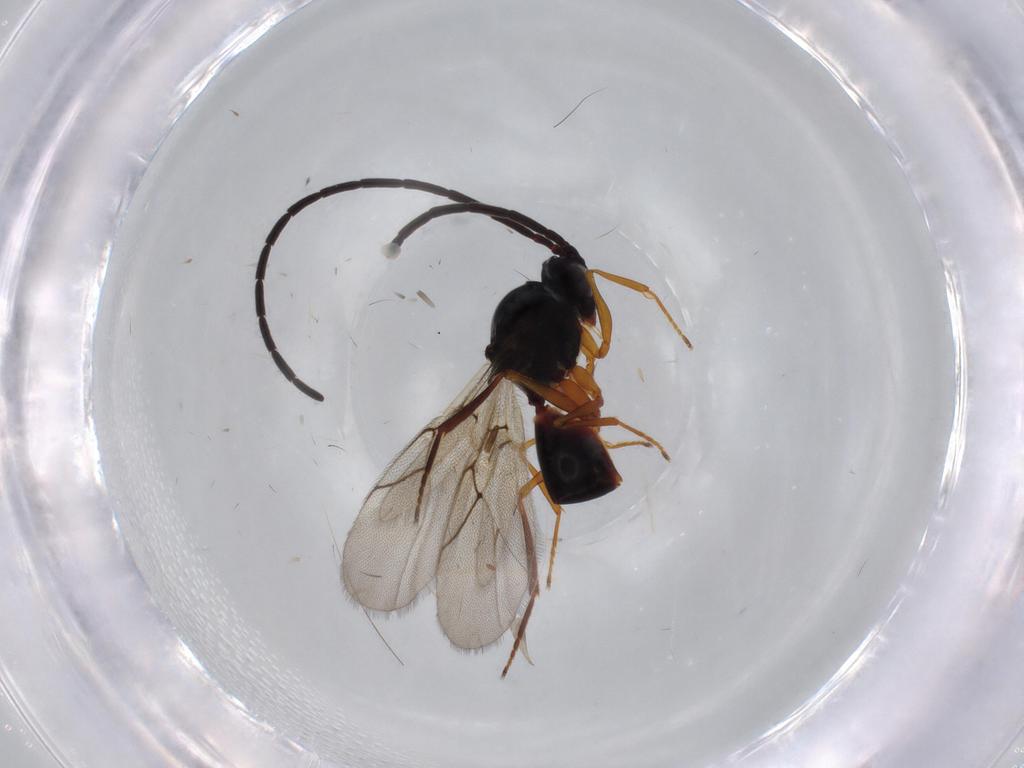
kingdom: Animalia
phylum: Arthropoda
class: Insecta
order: Hymenoptera
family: Figitidae
